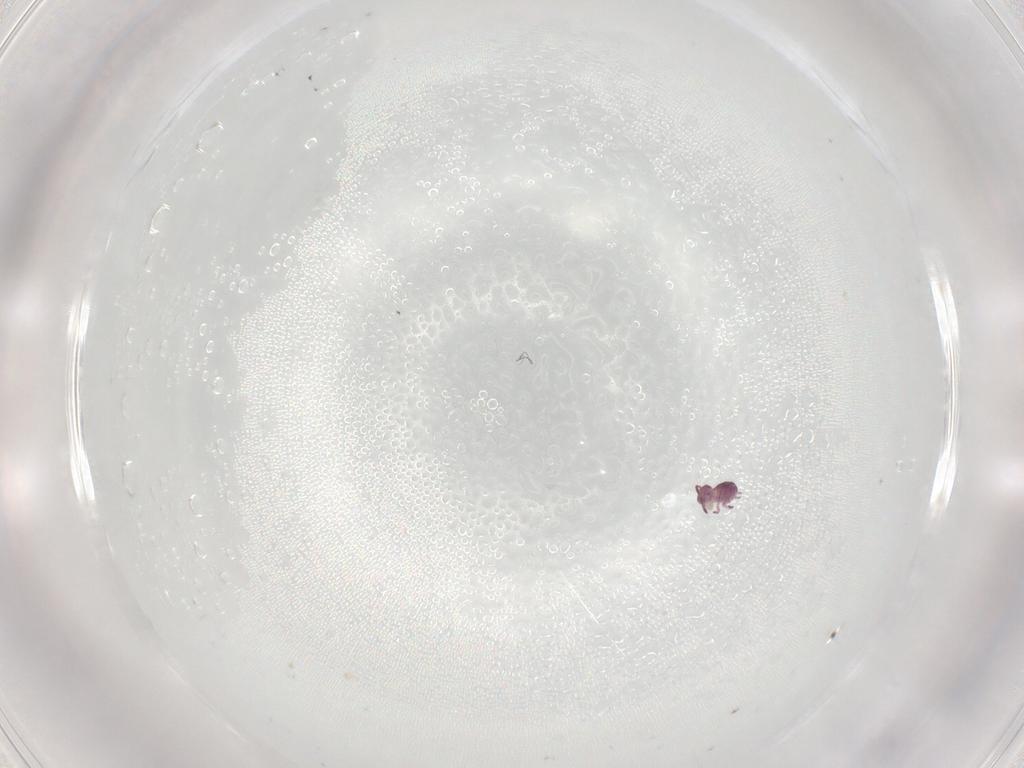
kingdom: Animalia
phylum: Arthropoda
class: Collembola
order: Symphypleona
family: Sminthurididae
